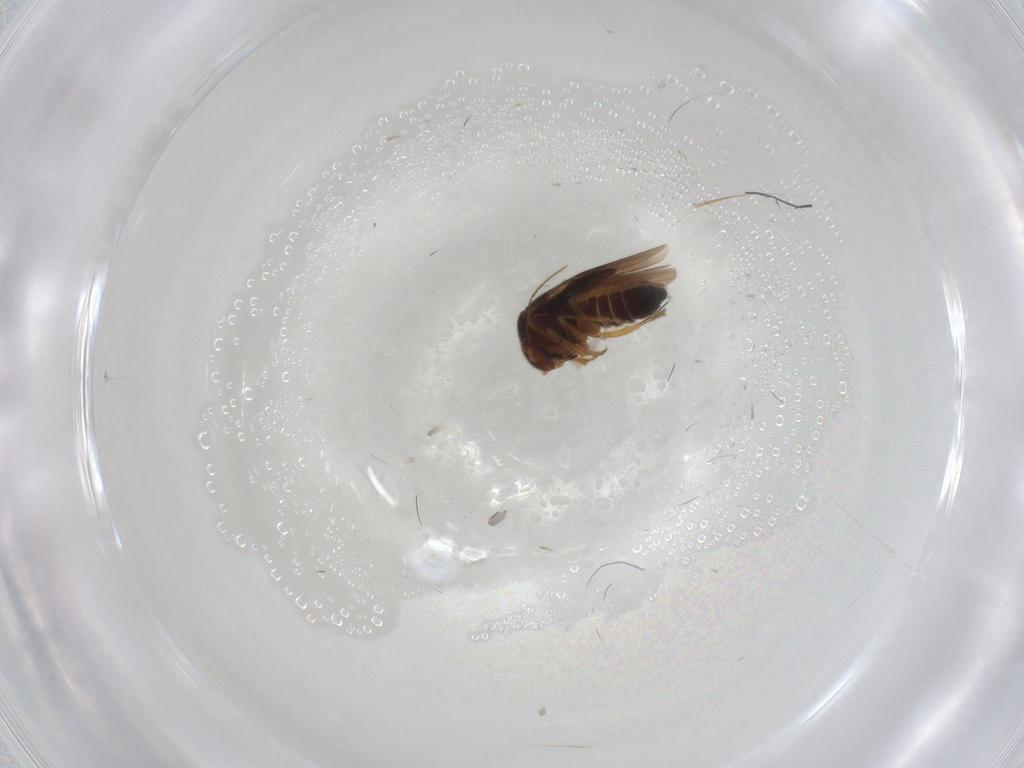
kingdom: Animalia
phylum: Arthropoda
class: Insecta
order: Hemiptera
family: Schizopteridae
